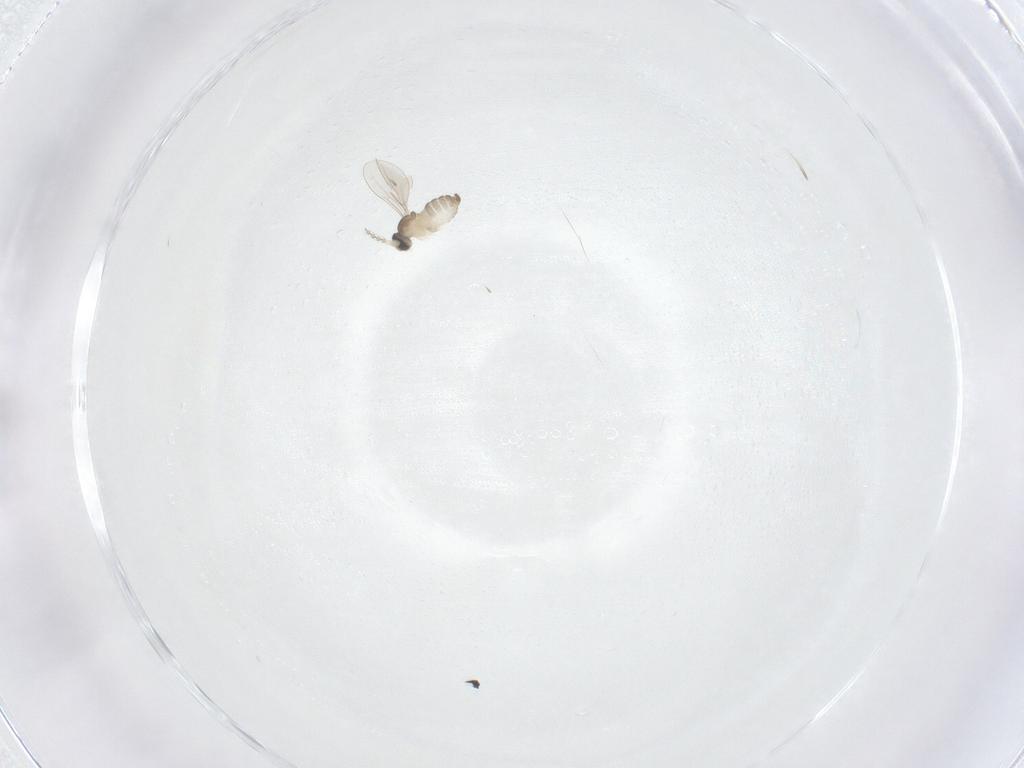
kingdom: Animalia
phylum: Arthropoda
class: Insecta
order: Diptera
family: Cecidomyiidae
